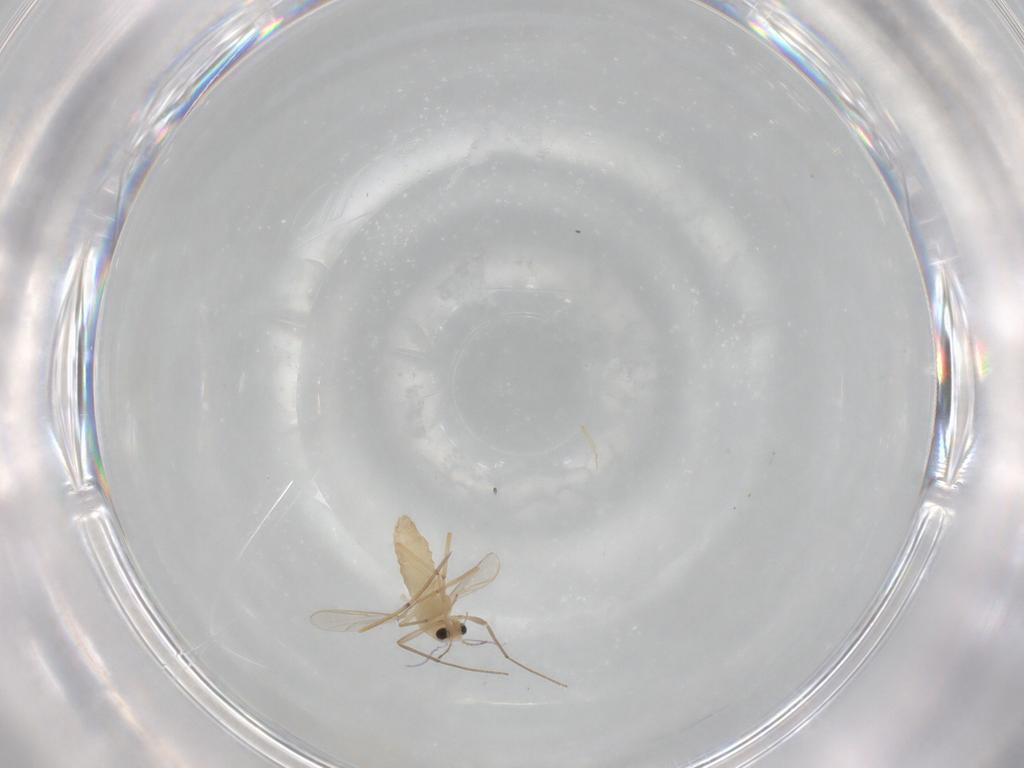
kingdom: Animalia
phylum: Arthropoda
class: Insecta
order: Diptera
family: Chironomidae
